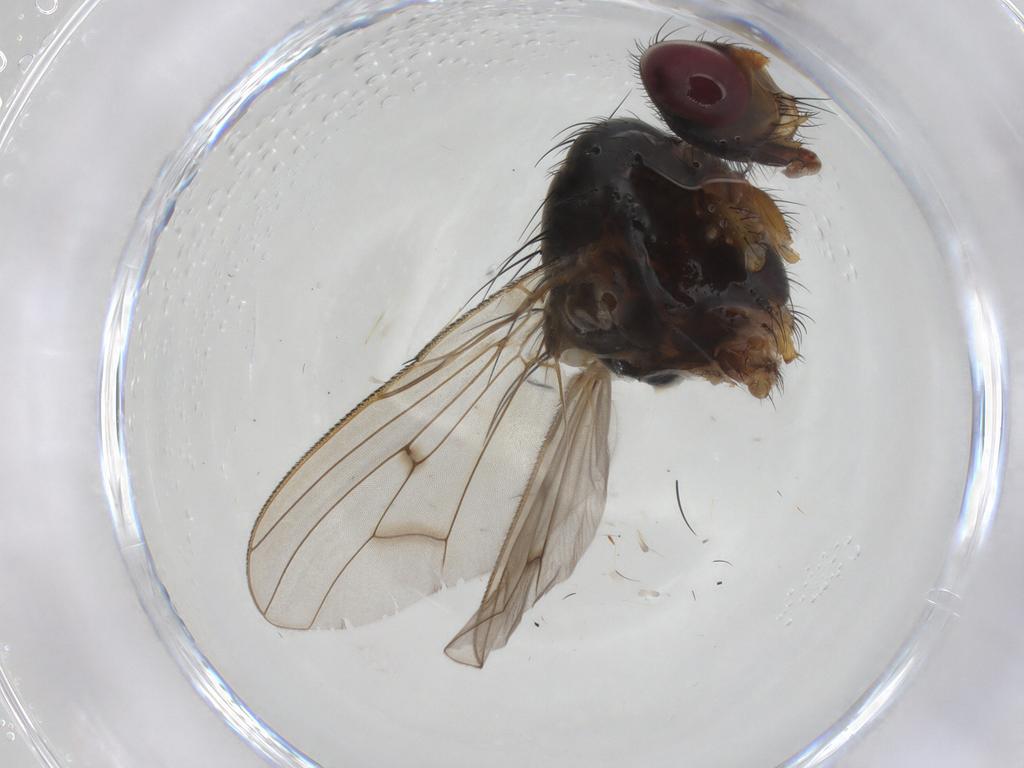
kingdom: Animalia
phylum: Arthropoda
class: Insecta
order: Diptera
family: Anthomyiidae
